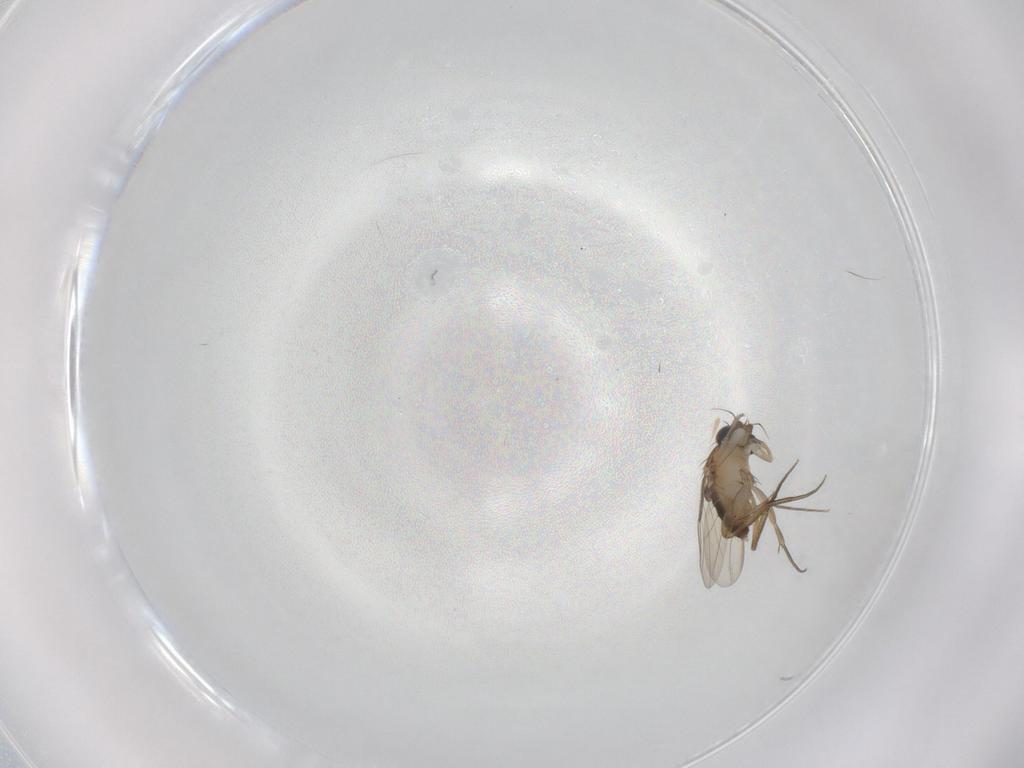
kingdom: Animalia
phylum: Arthropoda
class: Insecta
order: Diptera
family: Phoridae
